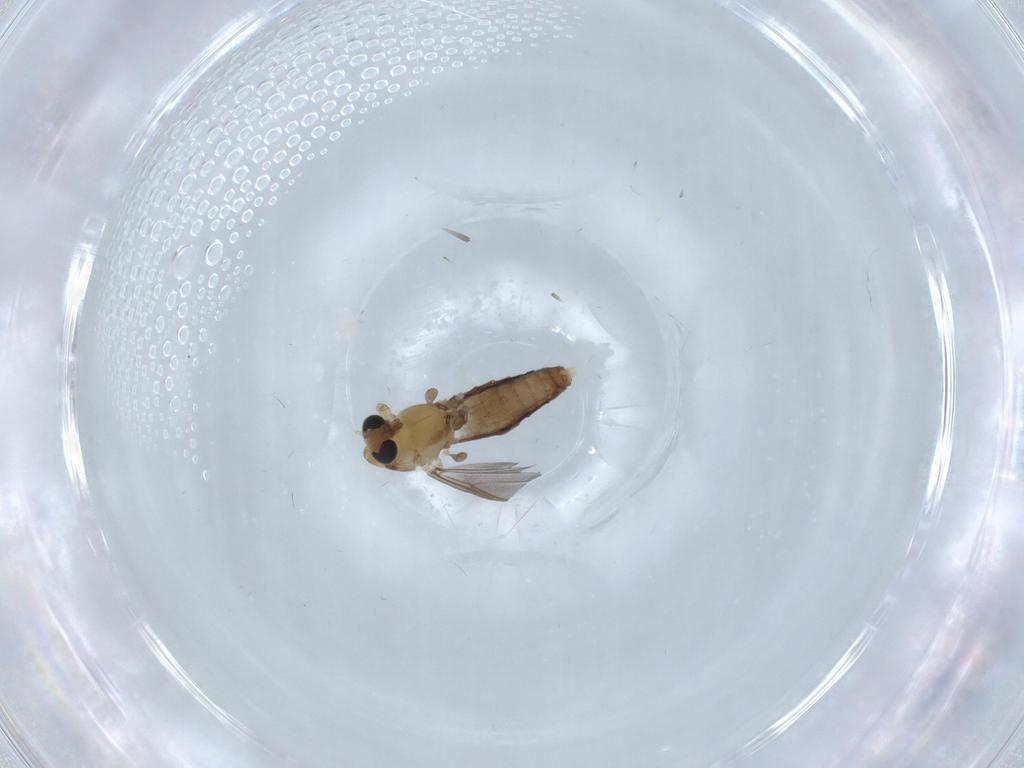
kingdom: Animalia
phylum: Arthropoda
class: Insecta
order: Diptera
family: Chironomidae
